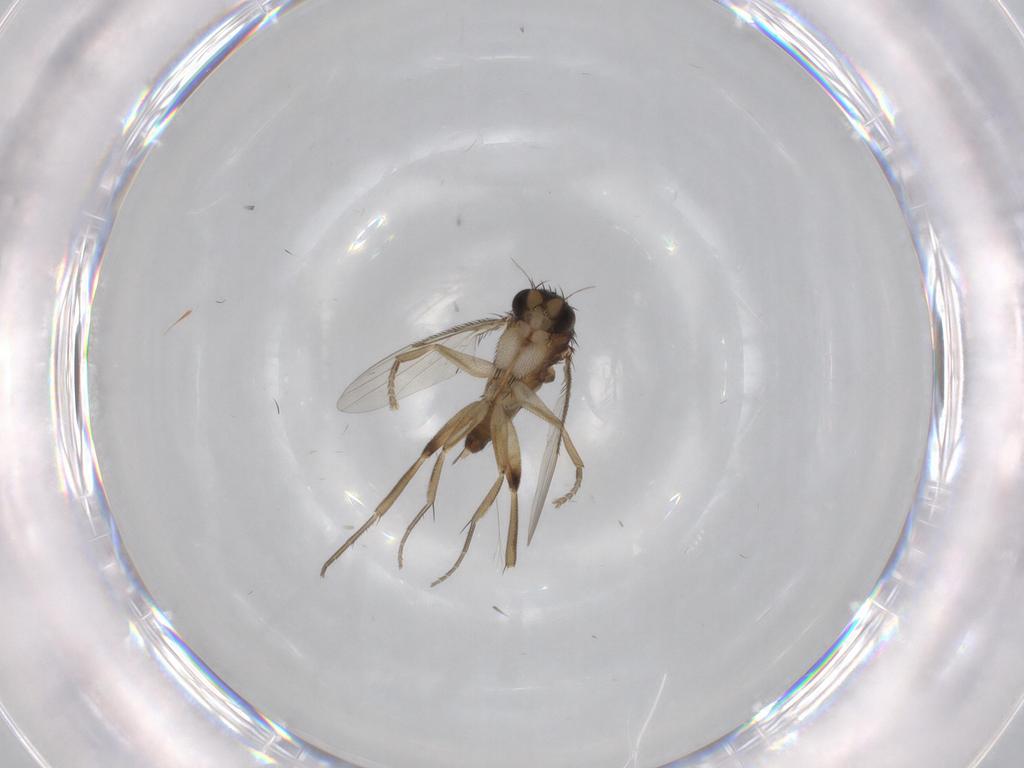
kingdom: Animalia
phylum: Arthropoda
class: Insecta
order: Diptera
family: Phoridae
